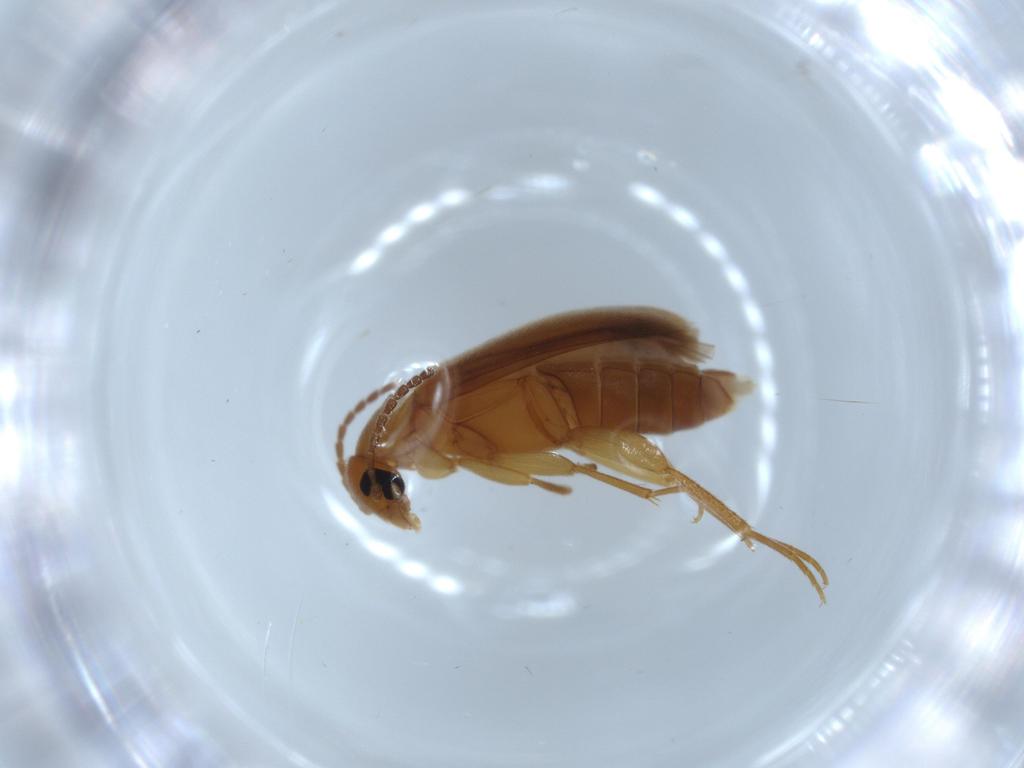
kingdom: Animalia
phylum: Arthropoda
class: Insecta
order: Coleoptera
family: Scraptiidae
